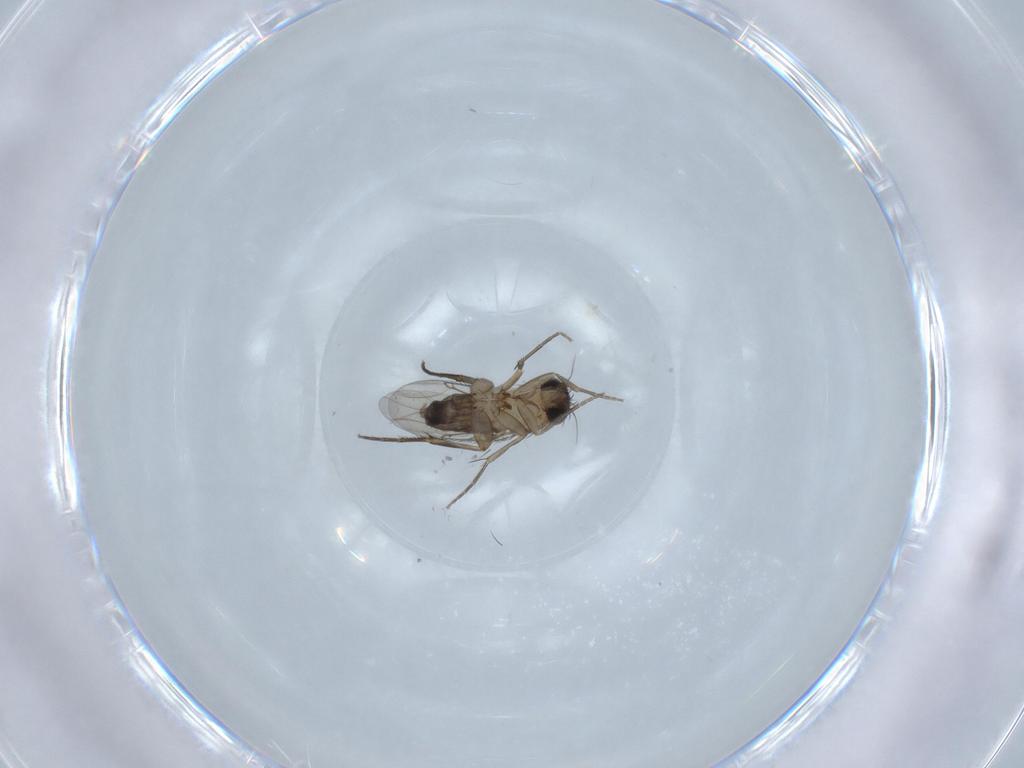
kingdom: Animalia
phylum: Arthropoda
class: Insecta
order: Diptera
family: Phoridae
